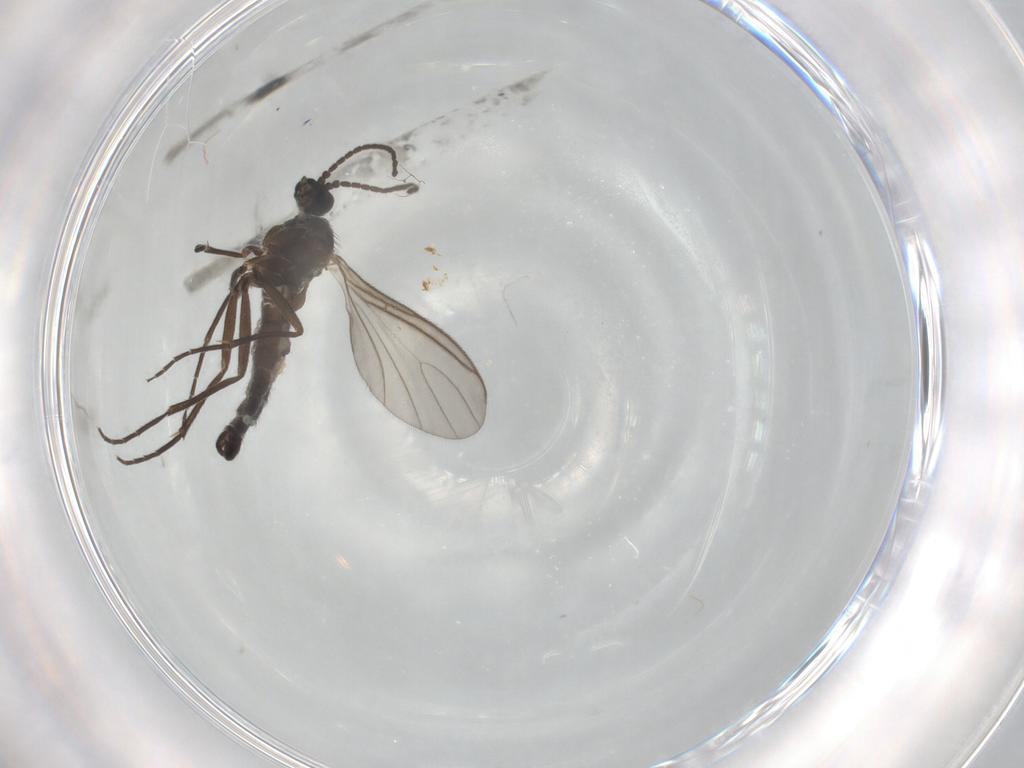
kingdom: Animalia
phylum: Arthropoda
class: Insecta
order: Diptera
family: Sciaridae
